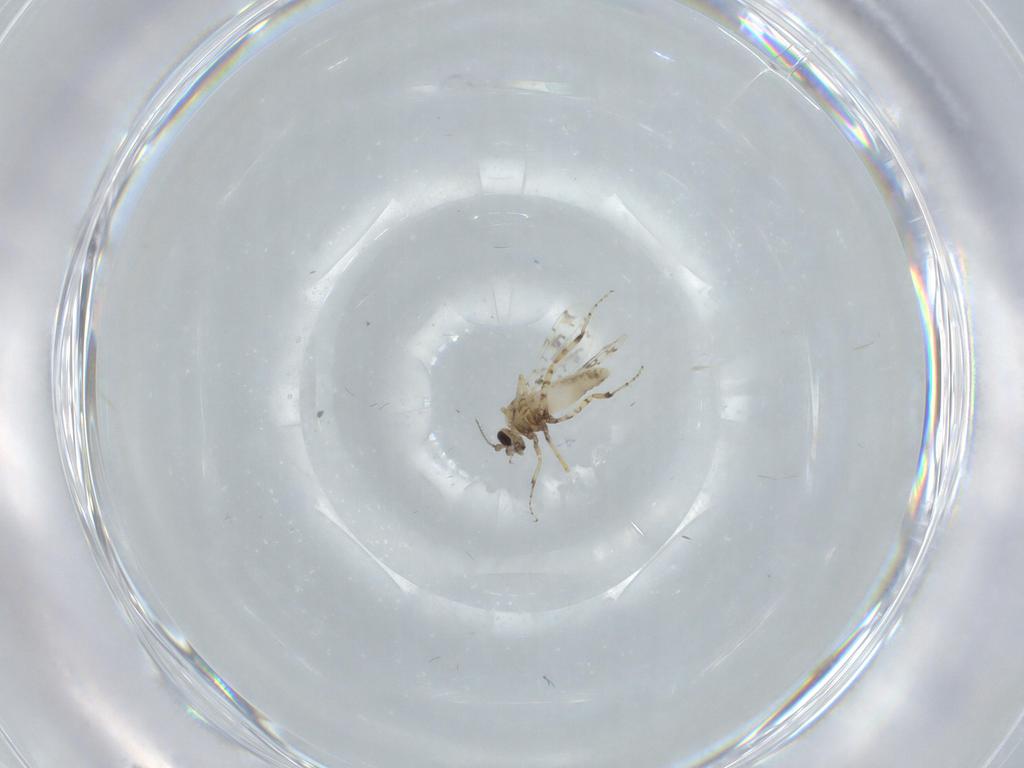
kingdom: Animalia
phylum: Arthropoda
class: Insecta
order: Diptera
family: Ceratopogonidae
